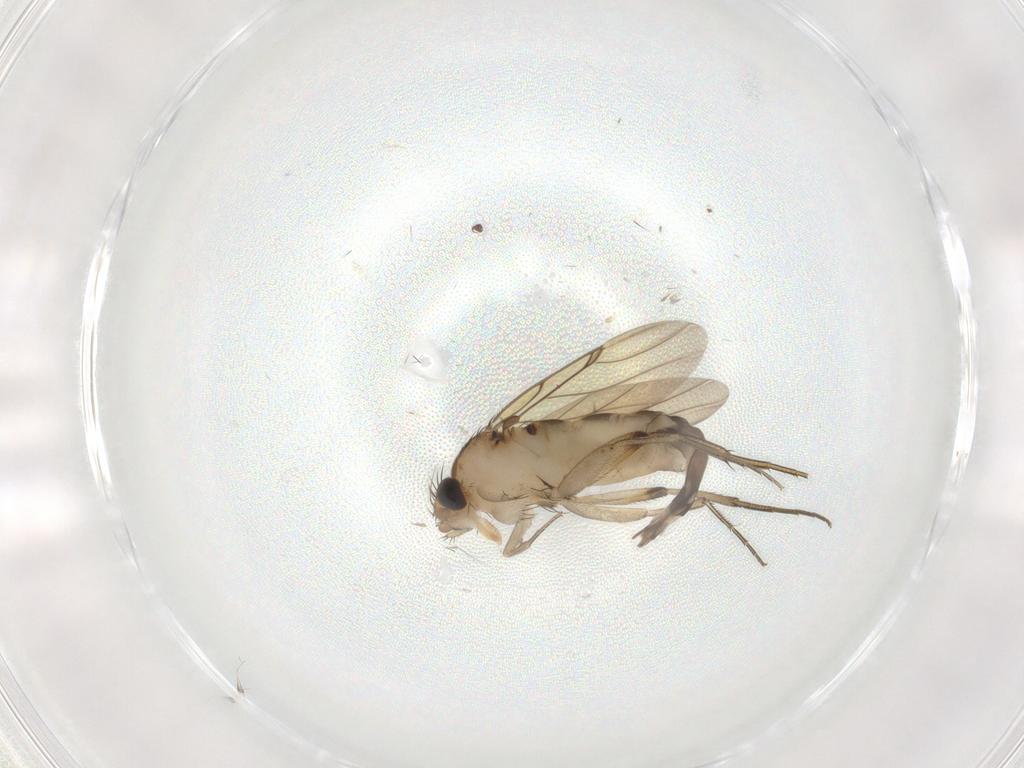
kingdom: Animalia
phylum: Arthropoda
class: Insecta
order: Diptera
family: Phoridae
